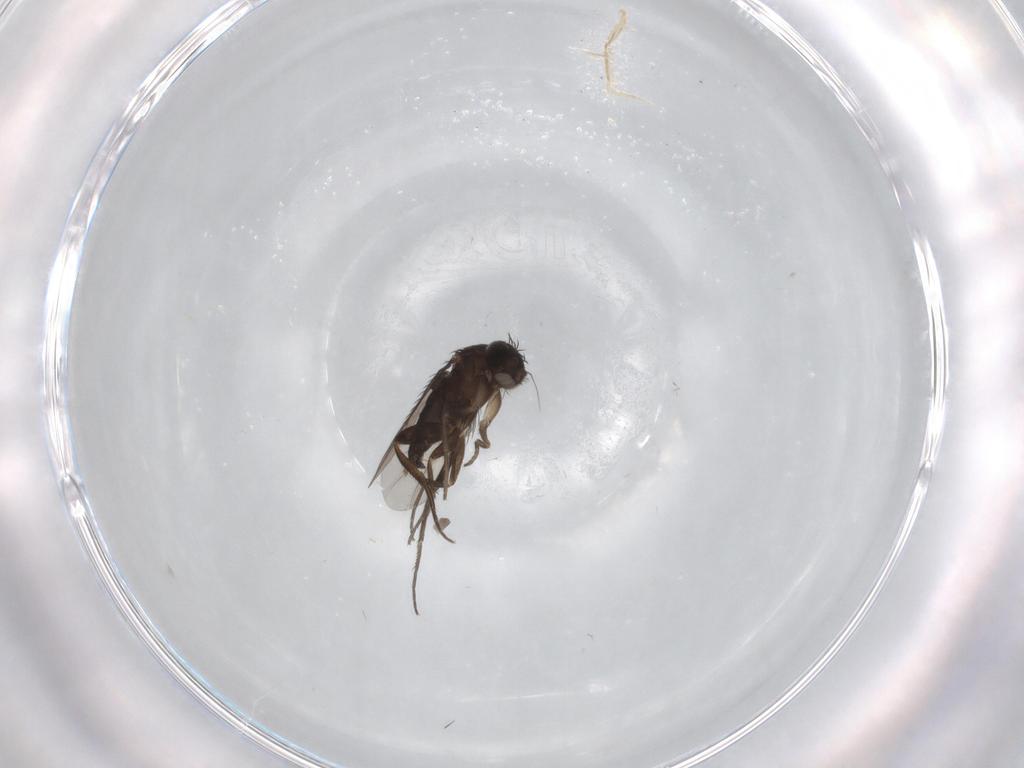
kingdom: Animalia
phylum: Arthropoda
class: Insecta
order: Diptera
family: Phoridae
